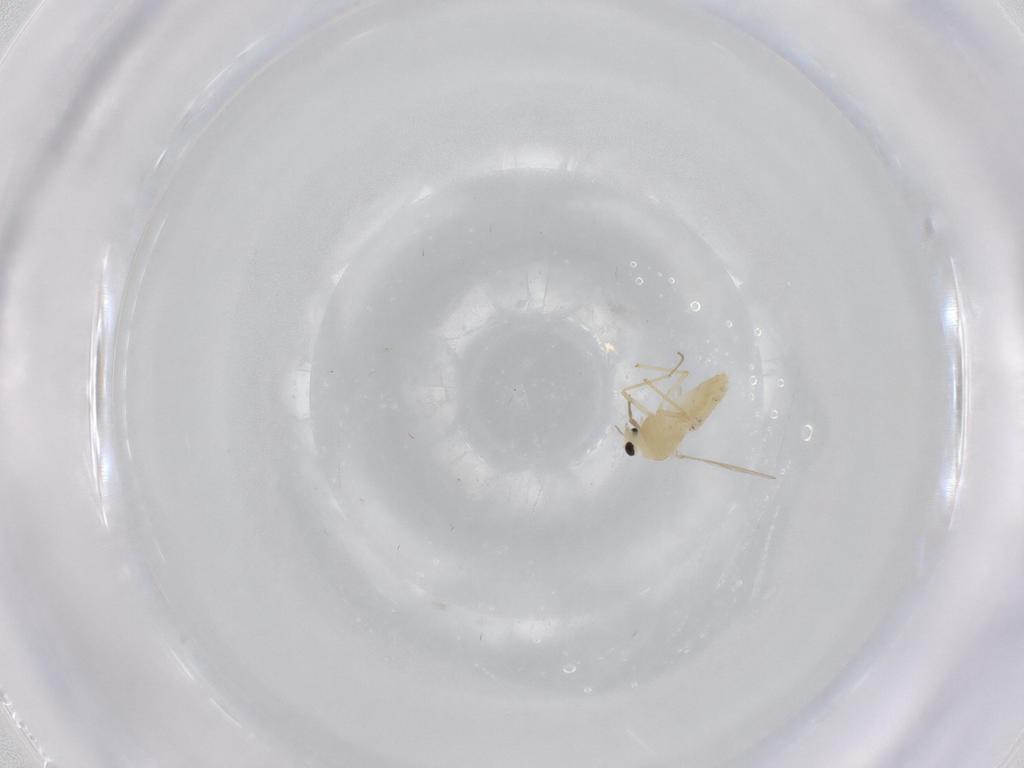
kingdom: Animalia
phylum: Arthropoda
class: Insecta
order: Diptera
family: Chironomidae
